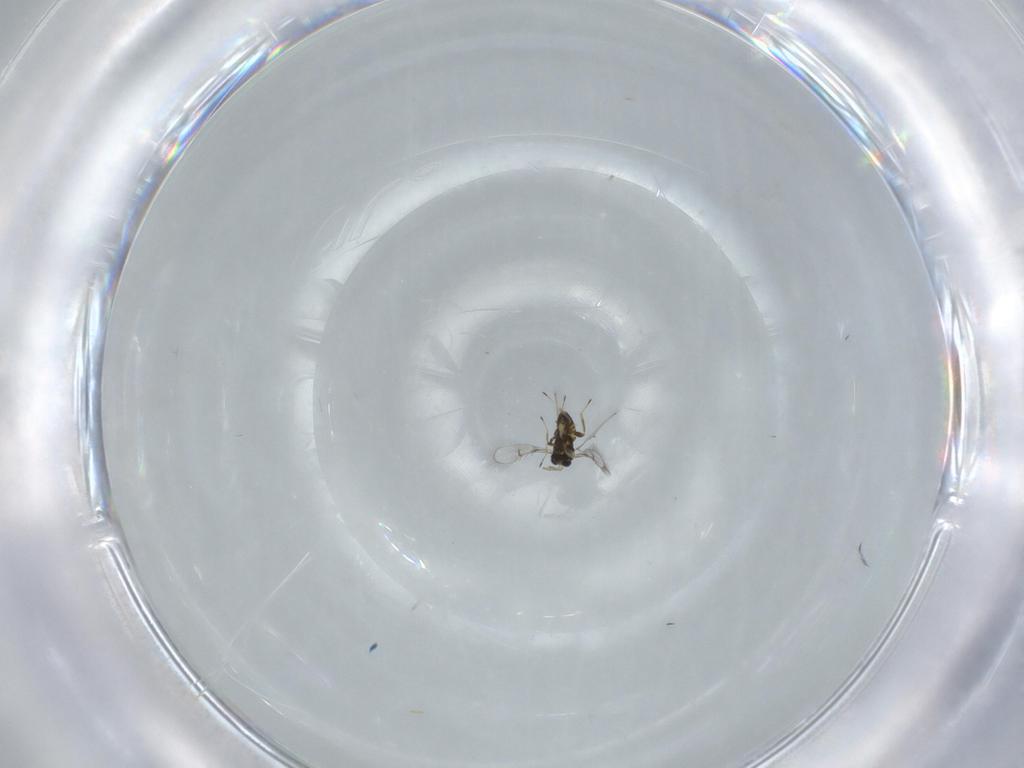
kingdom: Animalia
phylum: Arthropoda
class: Insecta
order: Hymenoptera
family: Trichogrammatidae
